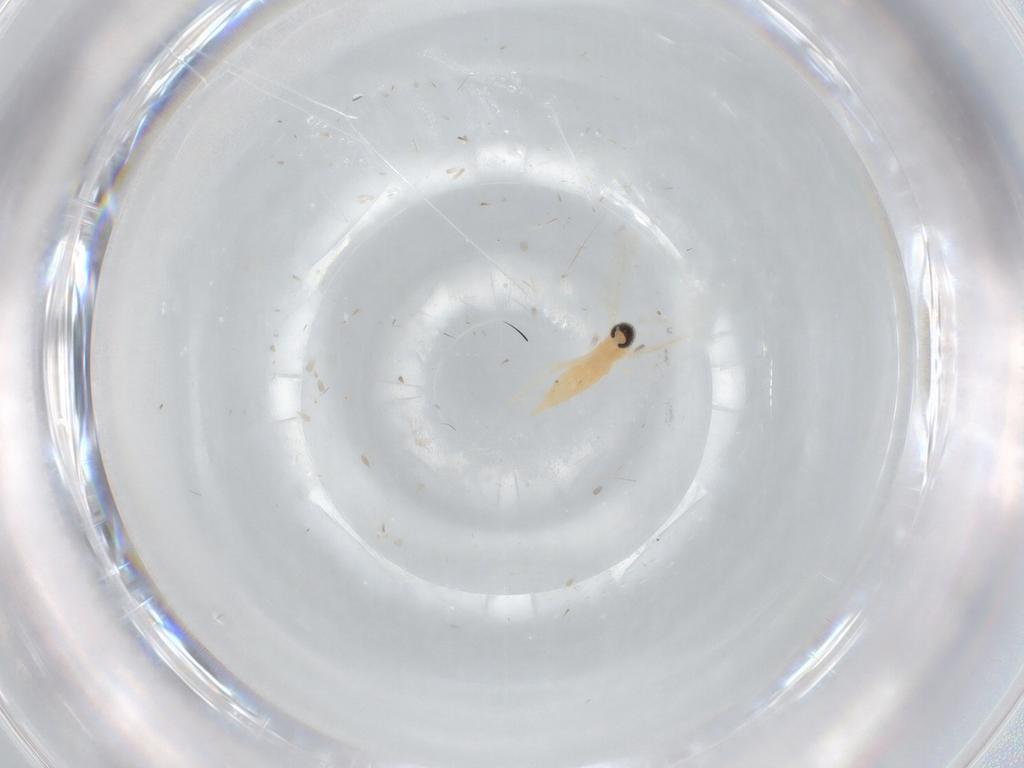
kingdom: Animalia
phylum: Arthropoda
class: Insecta
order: Diptera
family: Cecidomyiidae
